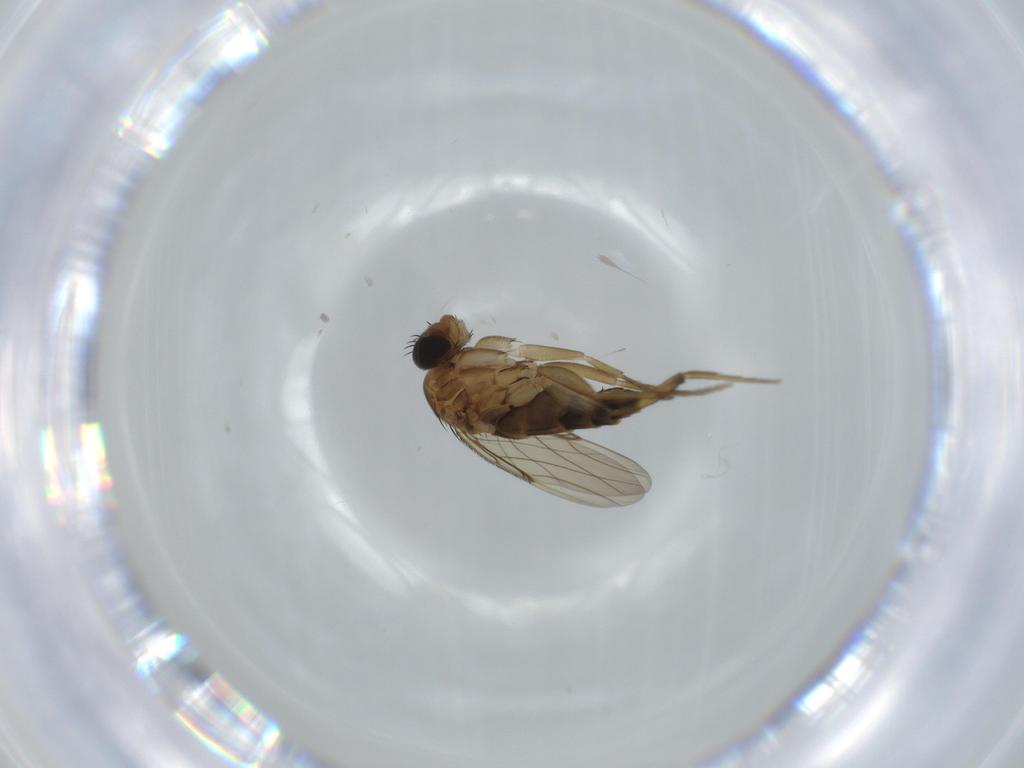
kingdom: Animalia
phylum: Arthropoda
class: Insecta
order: Diptera
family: Phoridae
